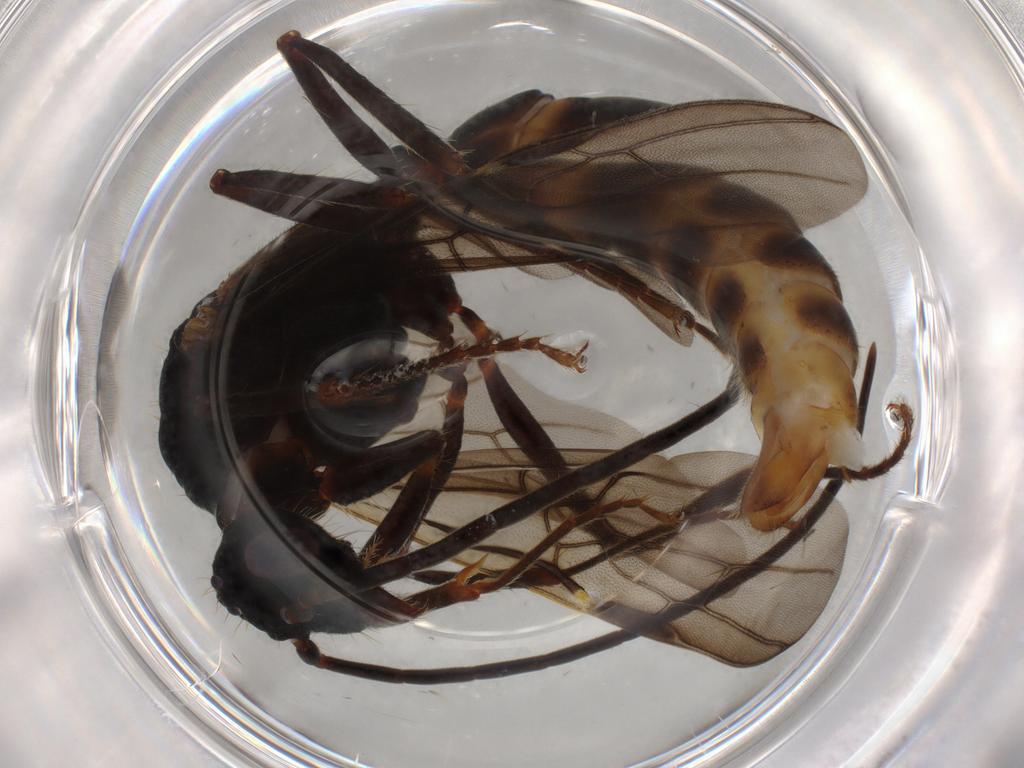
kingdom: Animalia
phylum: Arthropoda
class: Insecta
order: Hymenoptera
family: Formicidae
